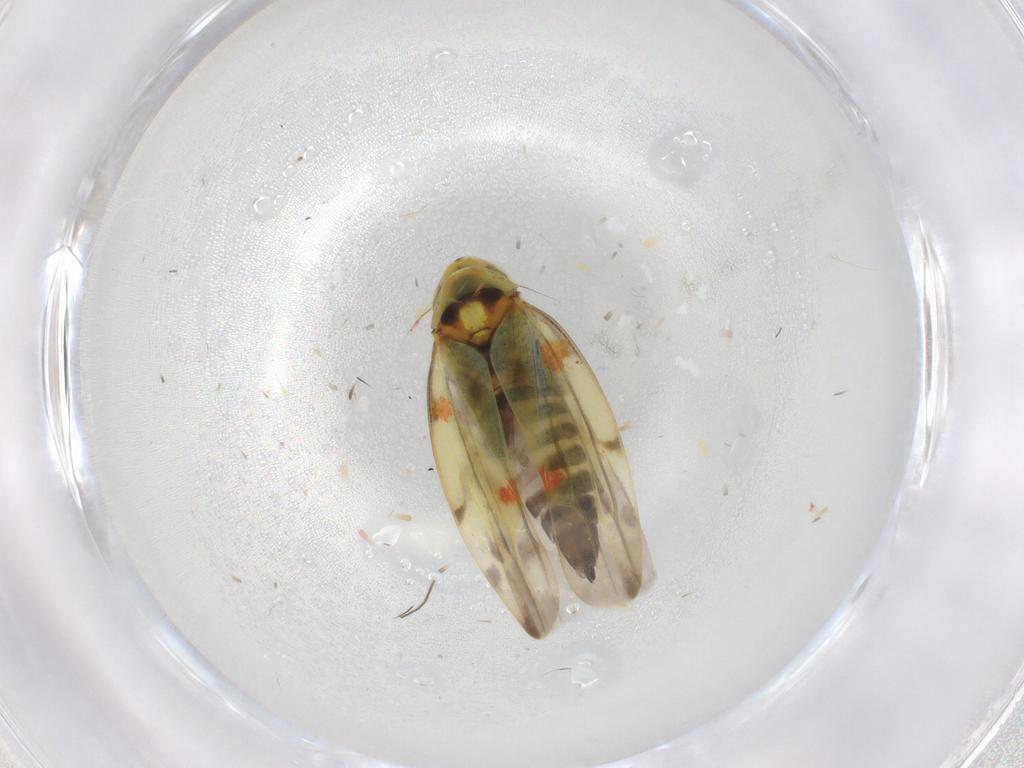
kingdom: Animalia
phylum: Arthropoda
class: Insecta
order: Hemiptera
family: Cicadellidae
